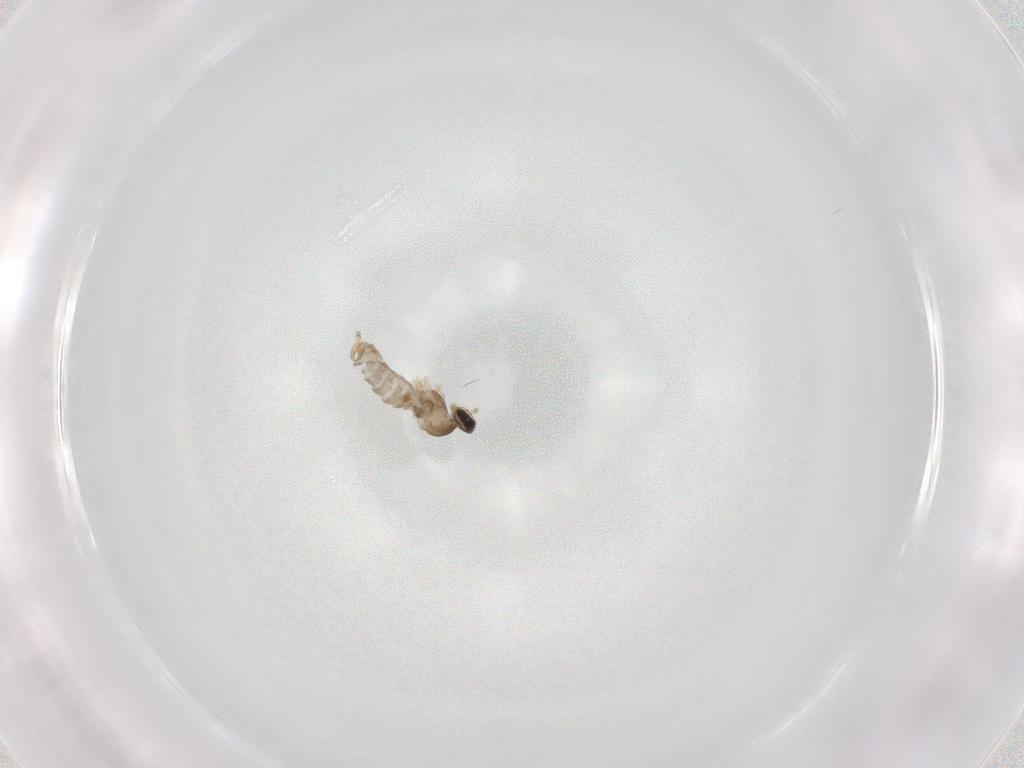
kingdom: Animalia
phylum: Arthropoda
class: Insecta
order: Diptera
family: Cecidomyiidae
